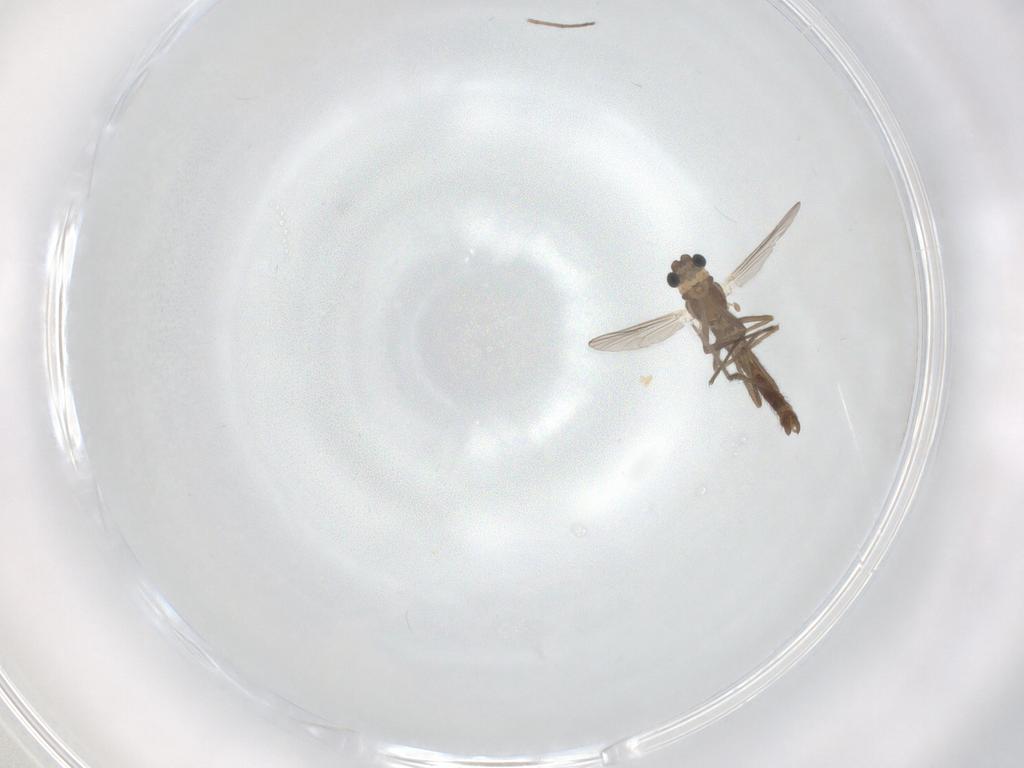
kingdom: Animalia
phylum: Arthropoda
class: Insecta
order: Diptera
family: Chironomidae
